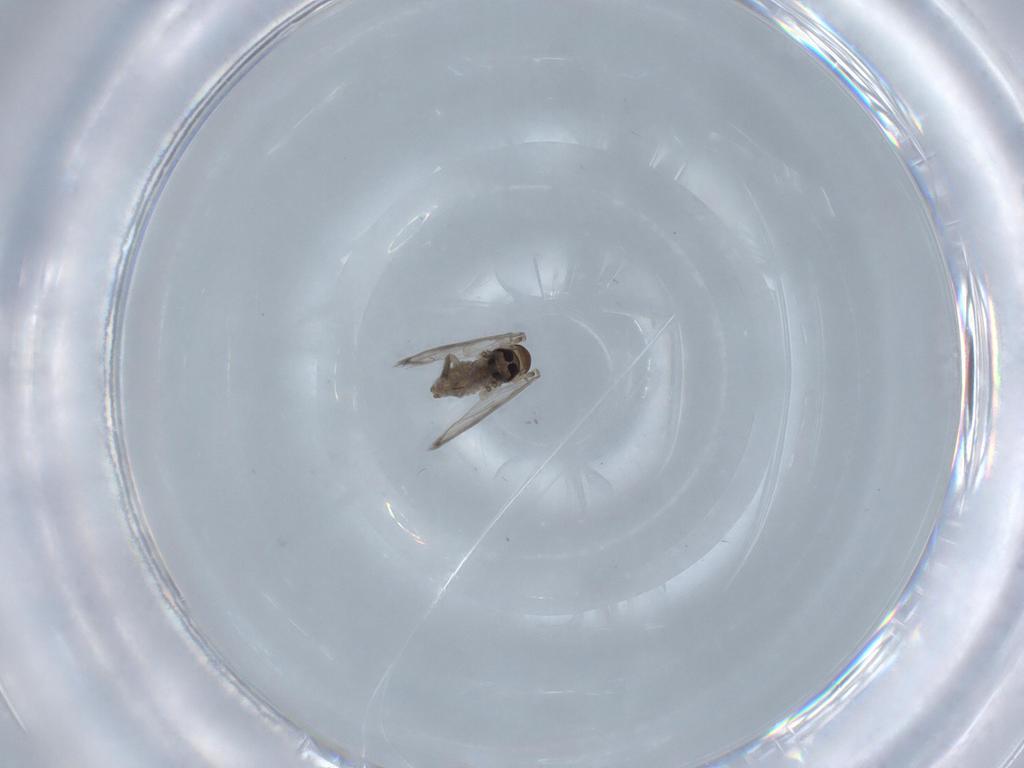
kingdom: Animalia
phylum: Arthropoda
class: Insecta
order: Diptera
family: Psychodidae
